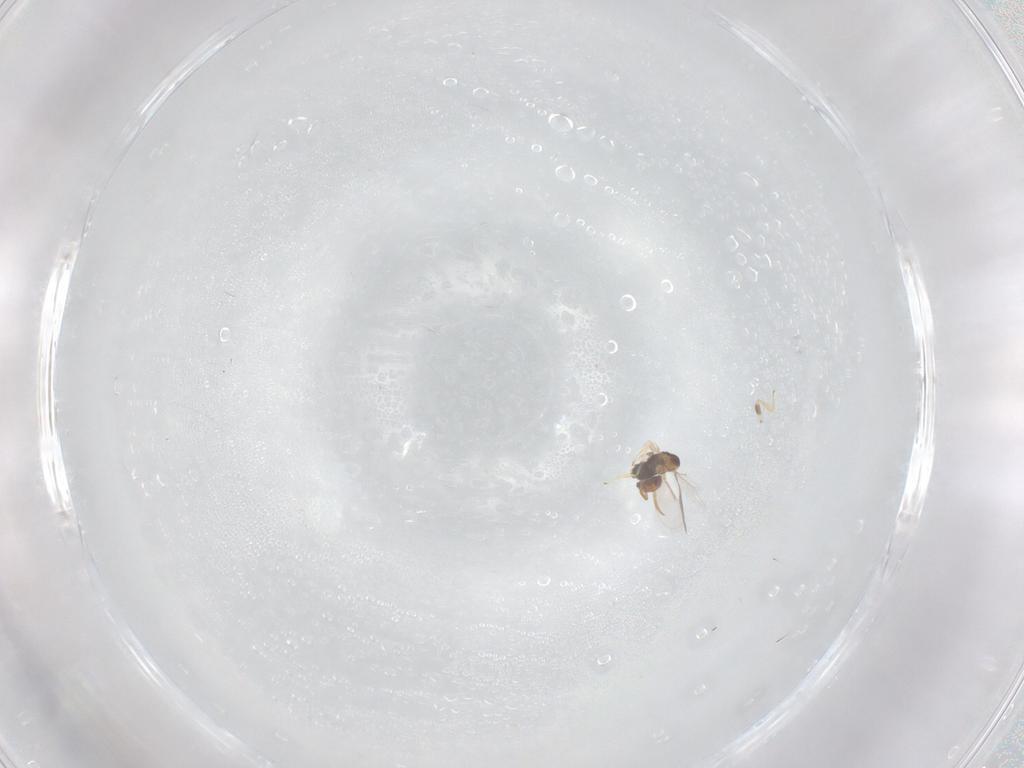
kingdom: Animalia
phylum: Arthropoda
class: Insecta
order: Hymenoptera
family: Aphelinidae
